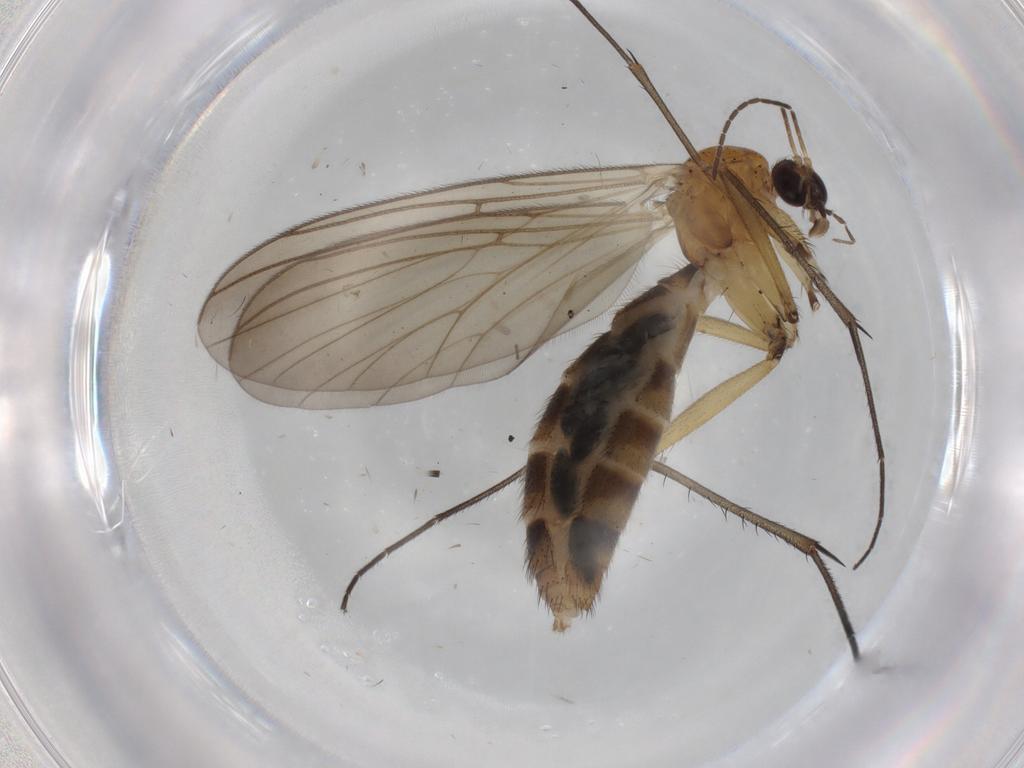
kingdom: Animalia
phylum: Arthropoda
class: Insecta
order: Diptera
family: Mycetophilidae
